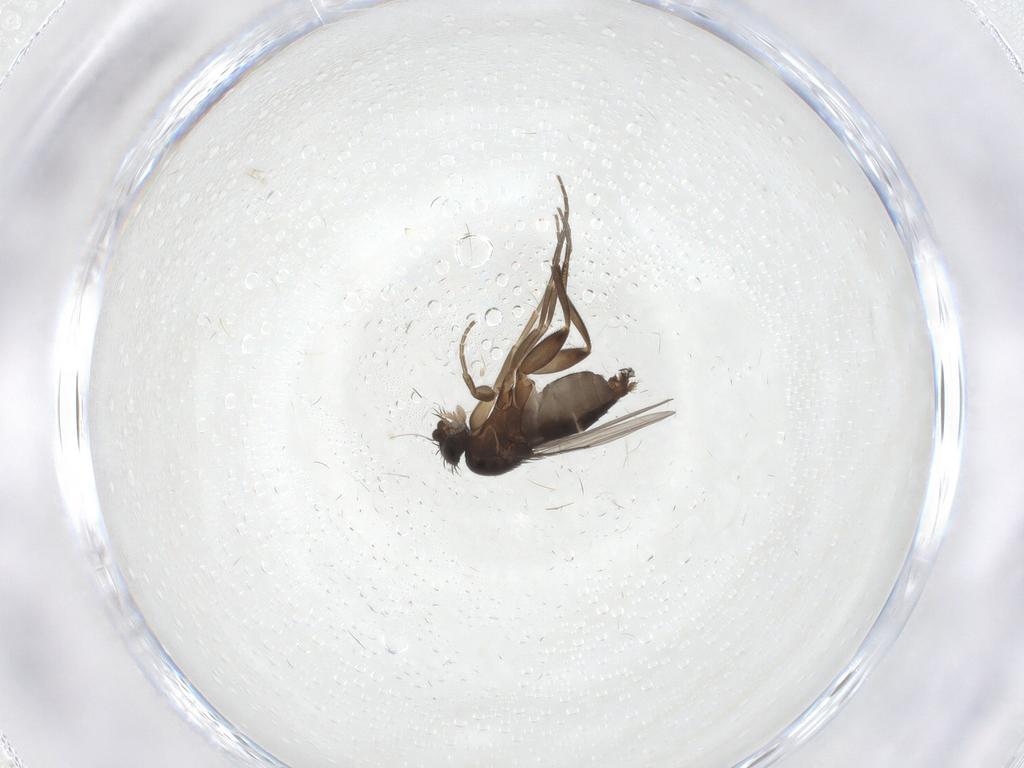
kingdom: Animalia
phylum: Arthropoda
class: Insecta
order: Diptera
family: Phoridae
